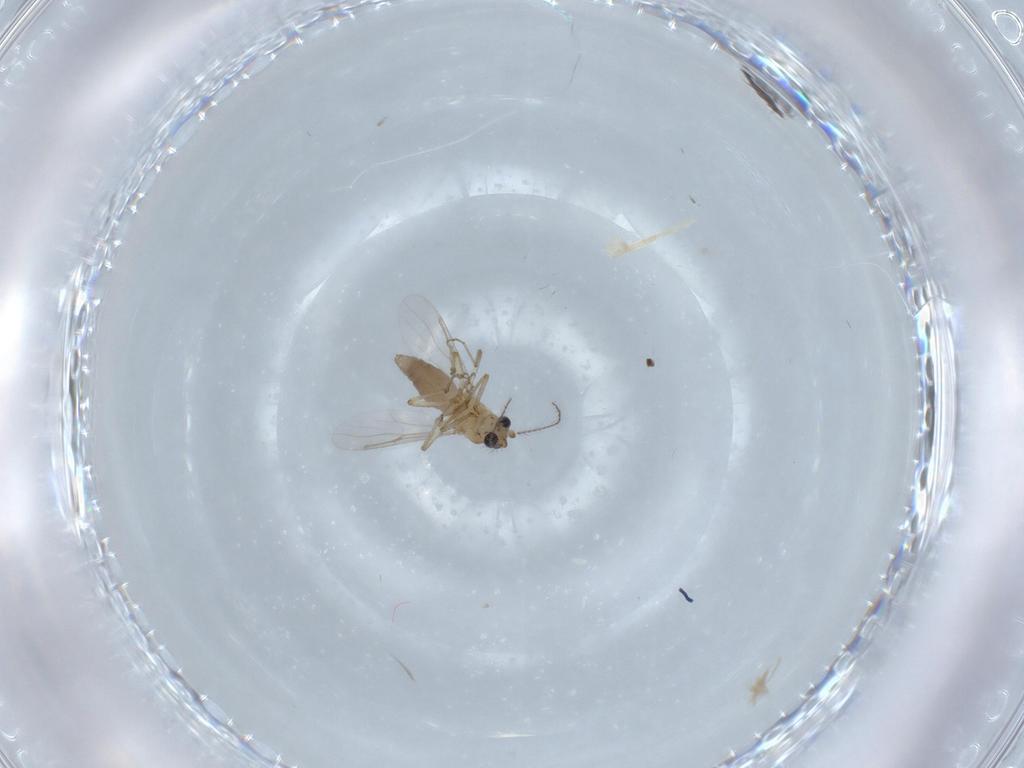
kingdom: Animalia
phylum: Arthropoda
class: Insecta
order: Diptera
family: Ceratopogonidae
